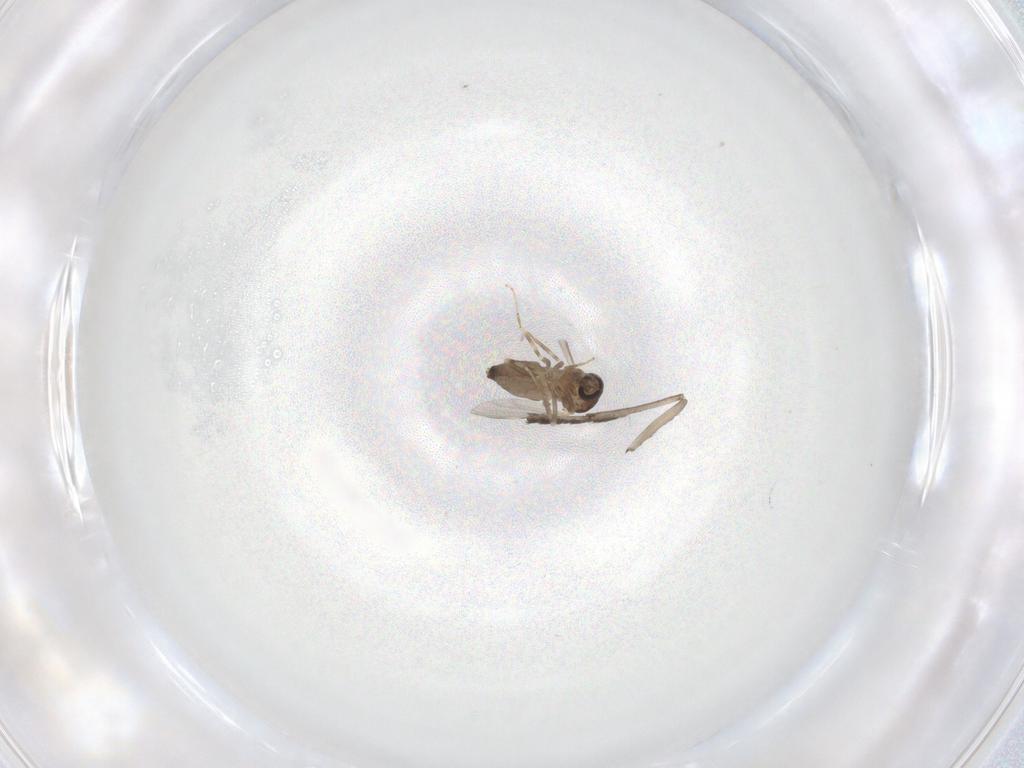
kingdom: Animalia
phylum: Arthropoda
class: Insecta
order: Diptera
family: Ceratopogonidae
